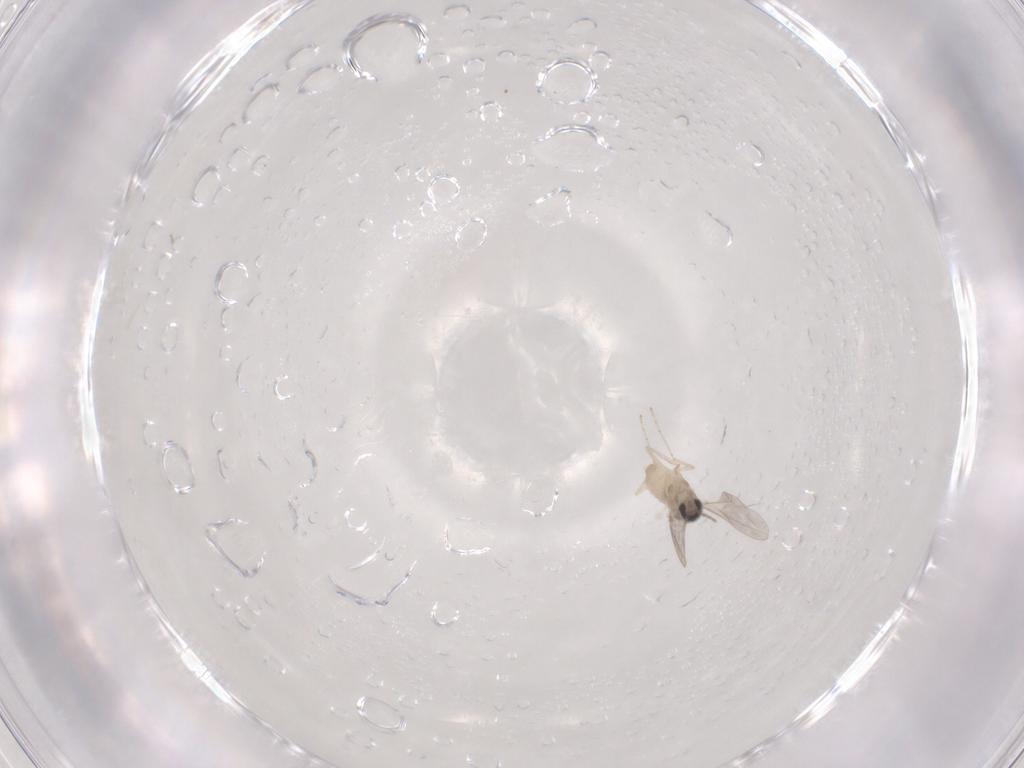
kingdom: Animalia
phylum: Arthropoda
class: Insecta
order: Diptera
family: Cecidomyiidae
